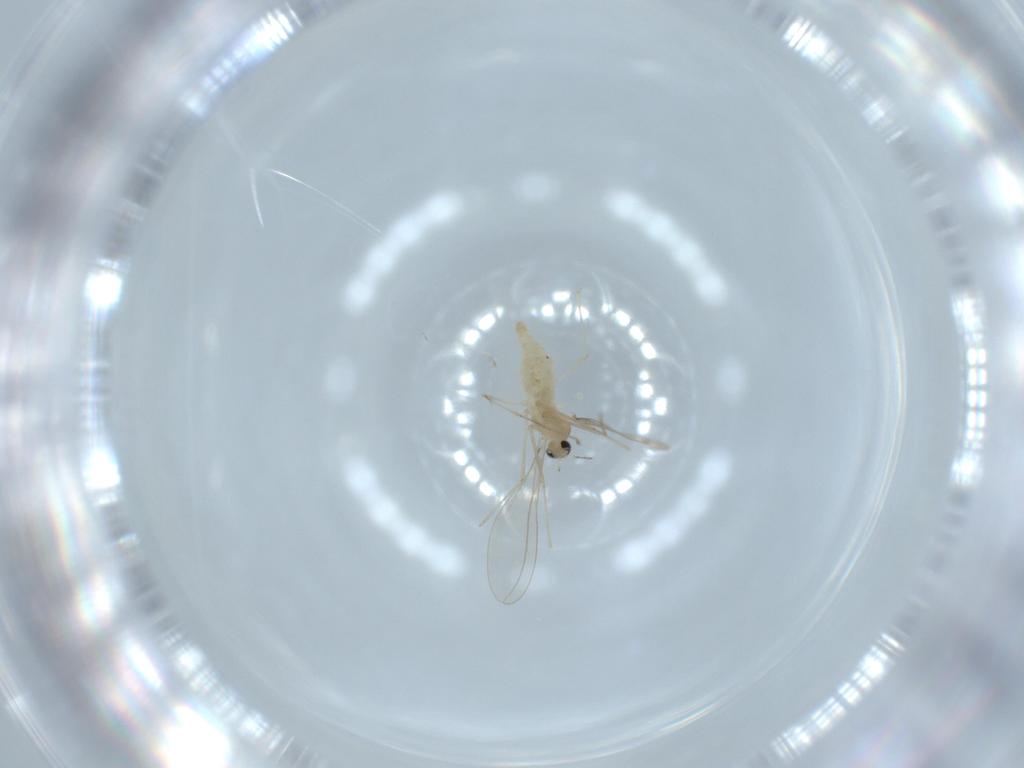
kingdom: Animalia
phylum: Arthropoda
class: Insecta
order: Diptera
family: Cecidomyiidae
